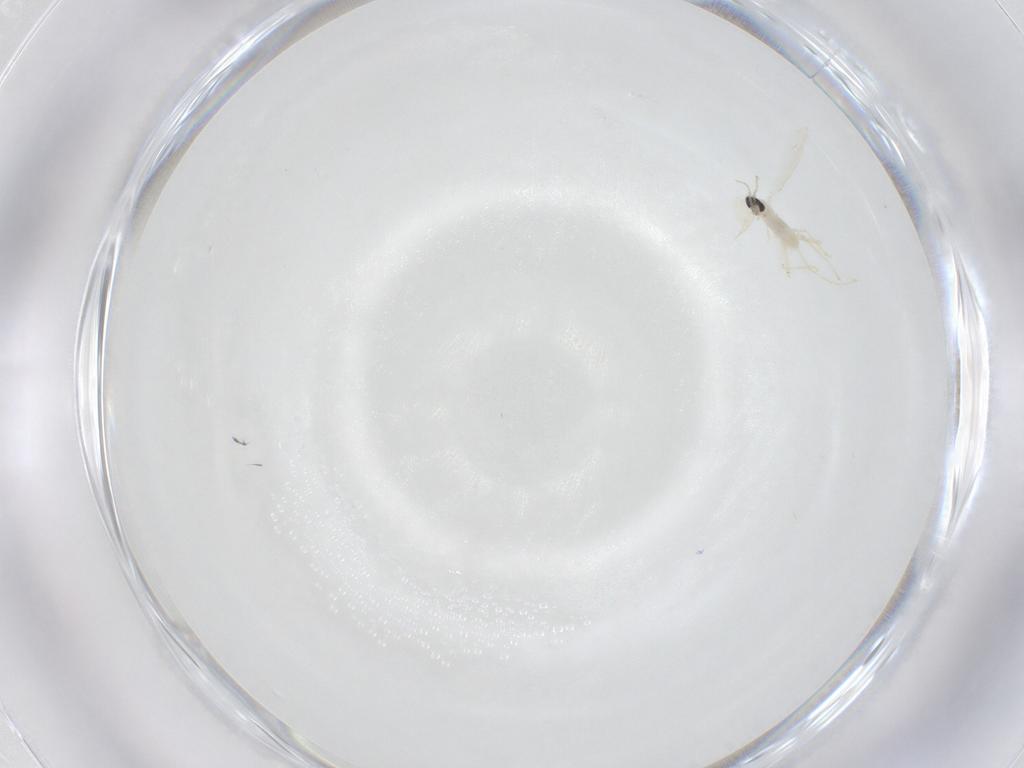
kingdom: Animalia
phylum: Arthropoda
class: Insecta
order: Diptera
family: Cecidomyiidae
